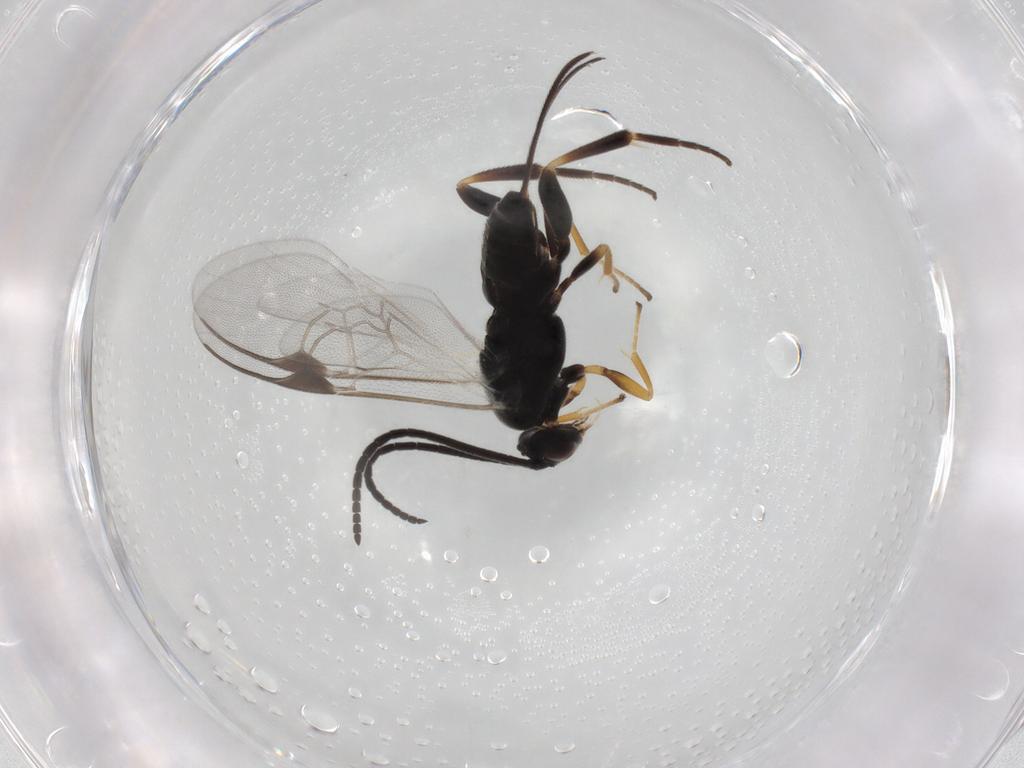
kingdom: Animalia
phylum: Arthropoda
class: Insecta
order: Hymenoptera
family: Braconidae
